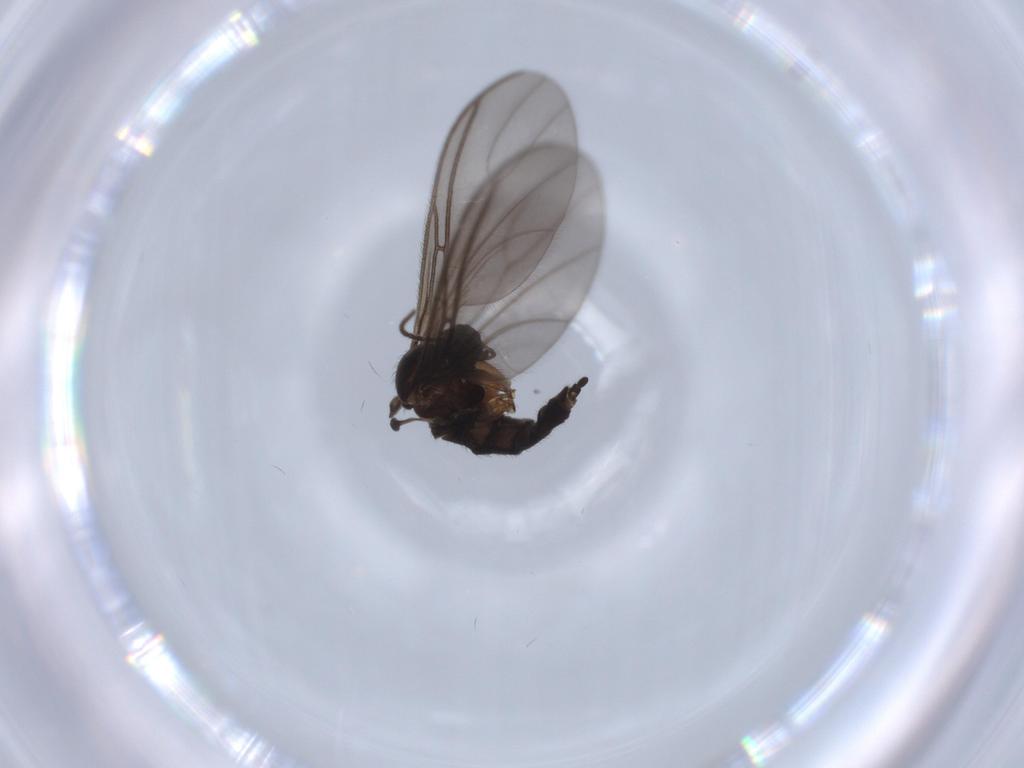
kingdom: Animalia
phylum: Arthropoda
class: Insecta
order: Diptera
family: Sciaridae
